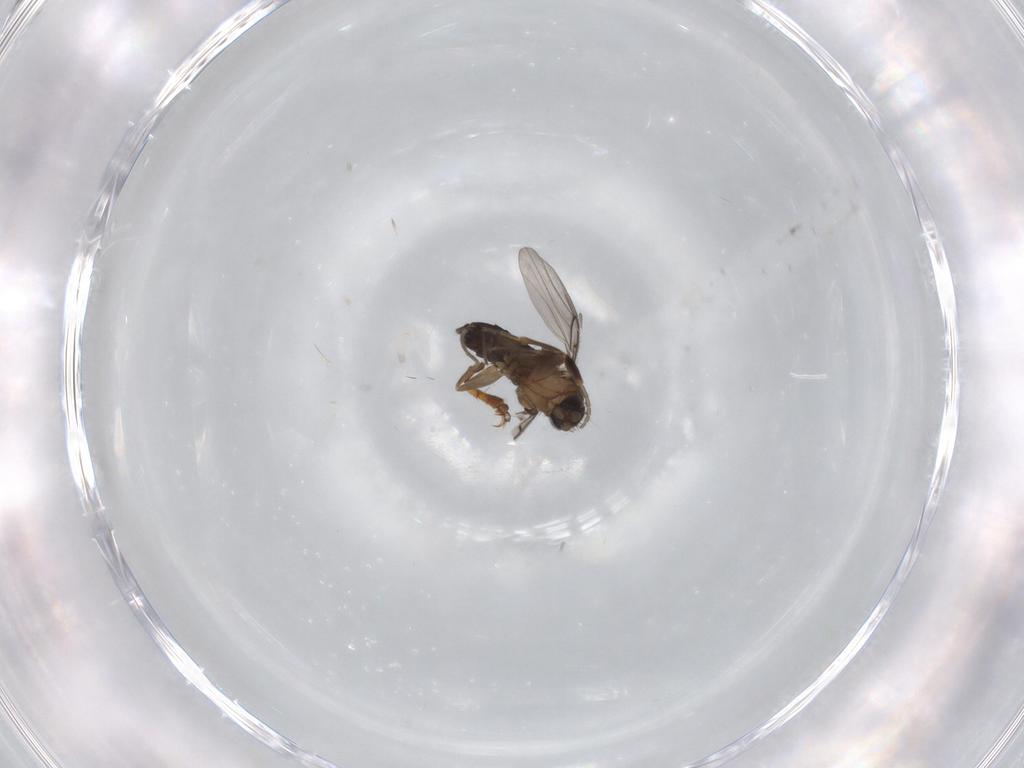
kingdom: Animalia
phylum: Arthropoda
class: Insecta
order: Diptera
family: Phoridae
